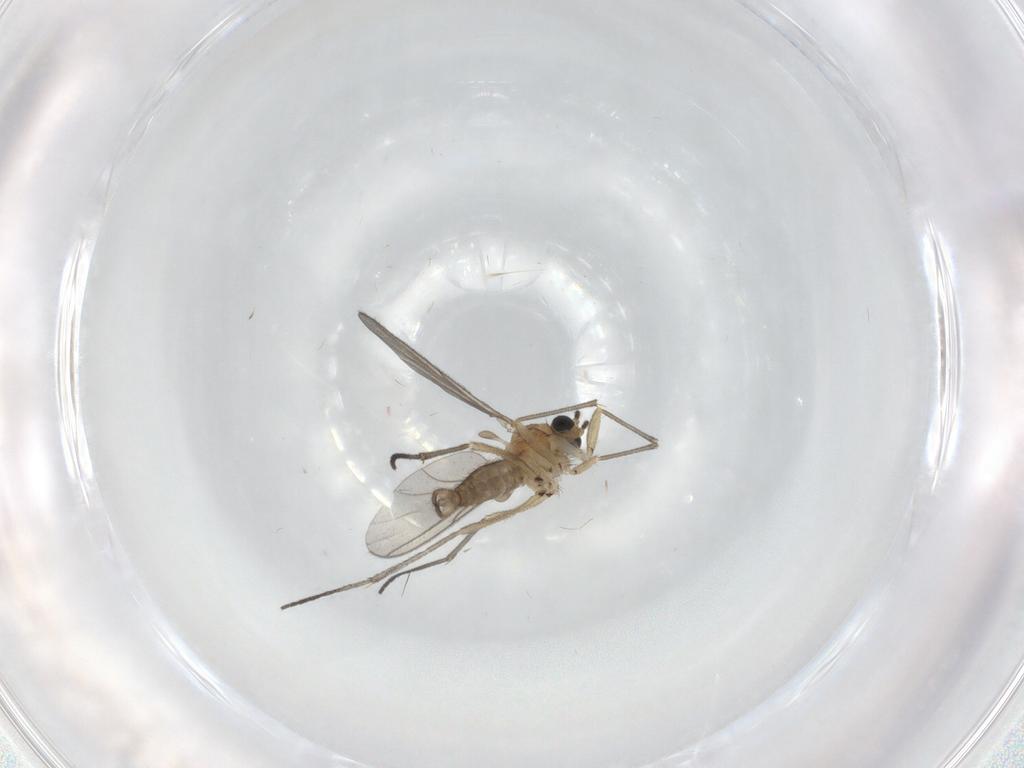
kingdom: Animalia
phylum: Arthropoda
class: Insecta
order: Diptera
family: Sciaridae
